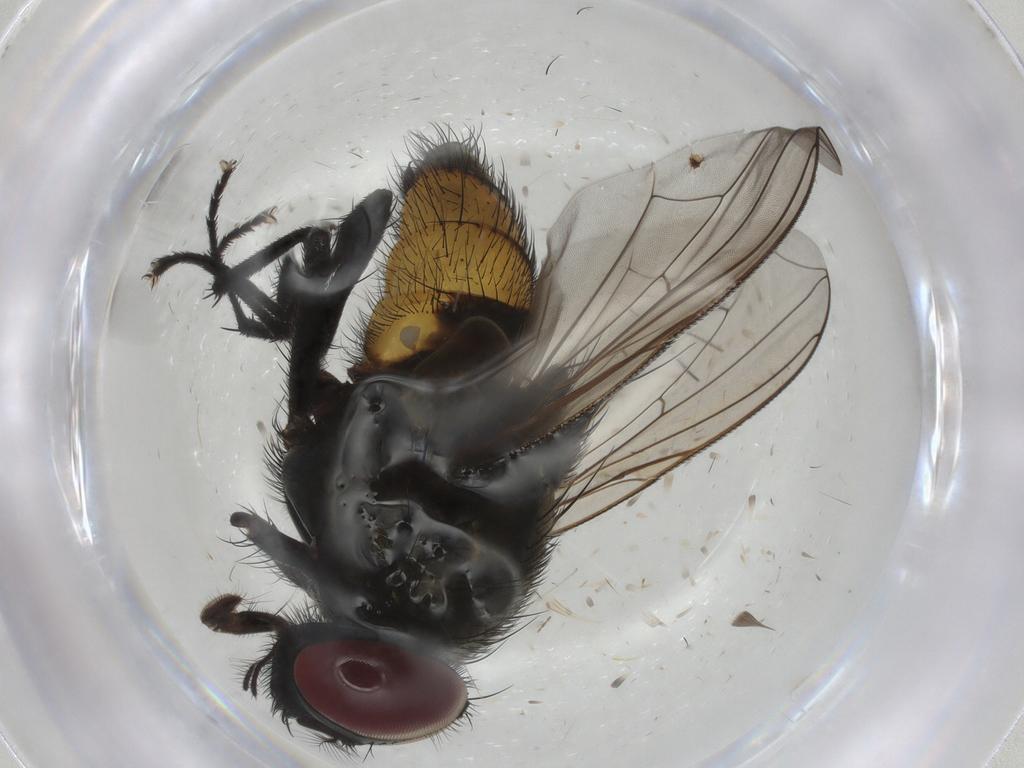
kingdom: Animalia
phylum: Arthropoda
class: Insecta
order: Diptera
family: Muscidae
